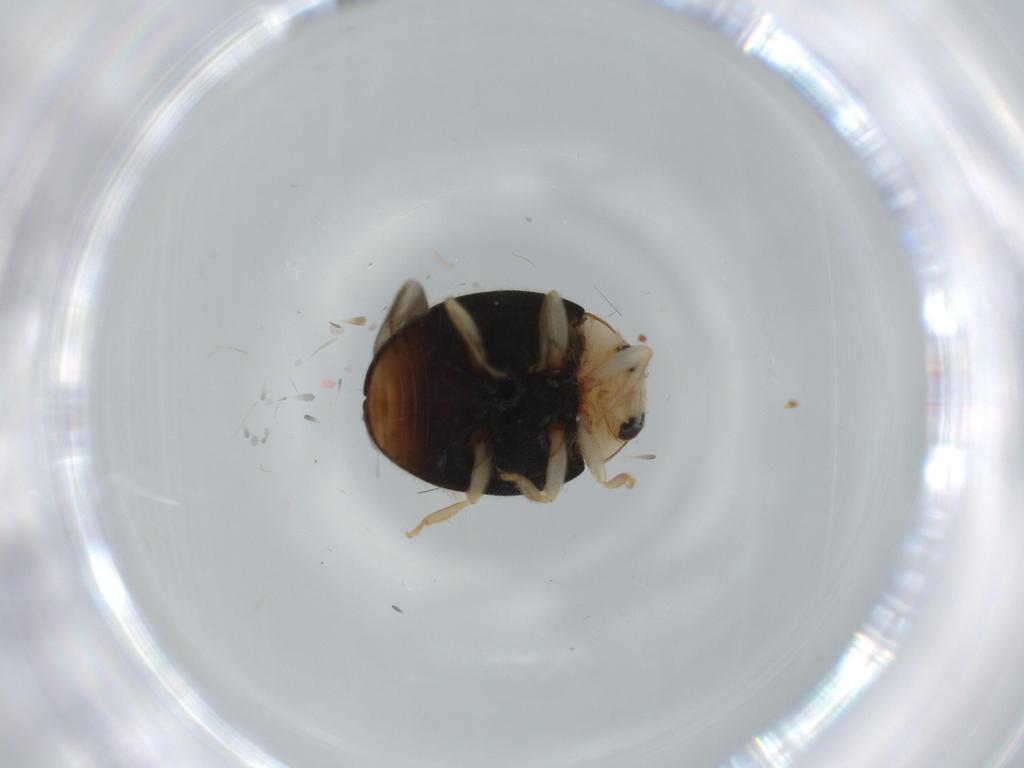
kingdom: Animalia
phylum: Arthropoda
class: Insecta
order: Coleoptera
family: Coccinellidae
